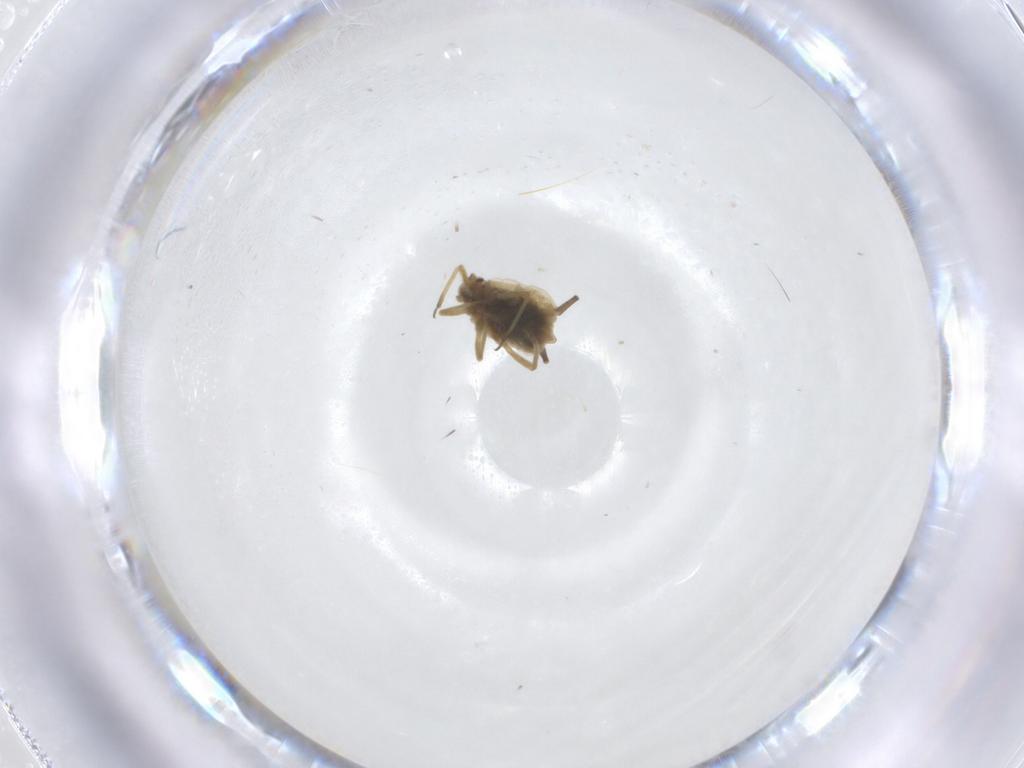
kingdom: Animalia
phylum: Arthropoda
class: Insecta
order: Hemiptera
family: Aphididae
